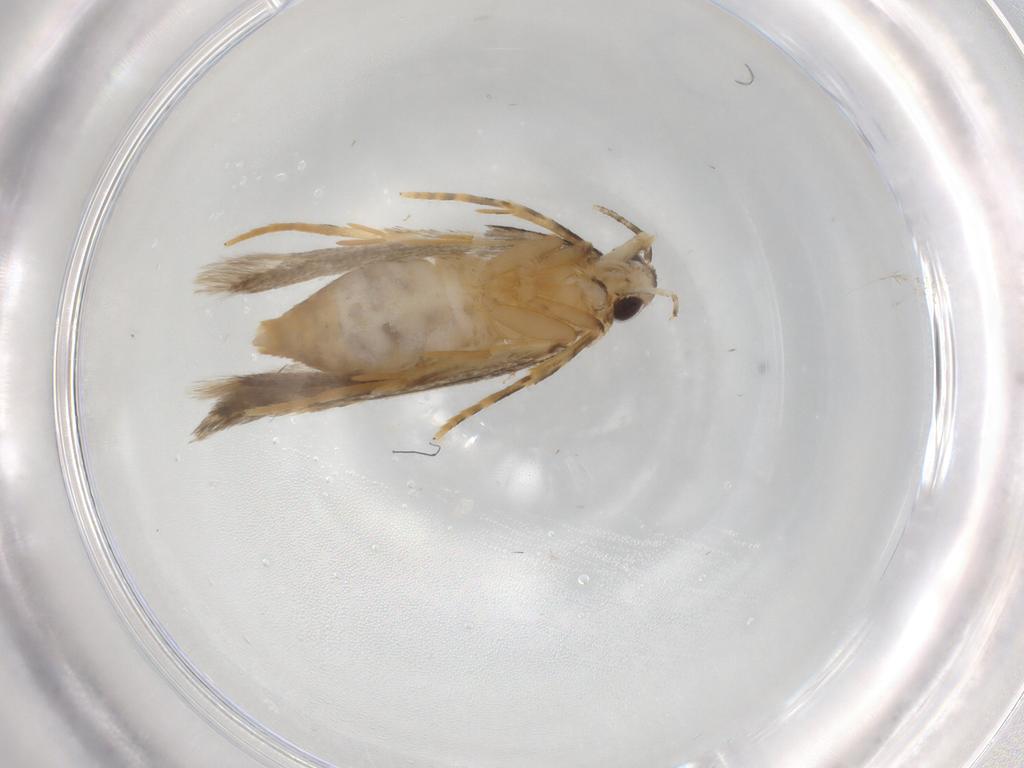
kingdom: Animalia
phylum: Arthropoda
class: Insecta
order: Lepidoptera
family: Autostichidae
